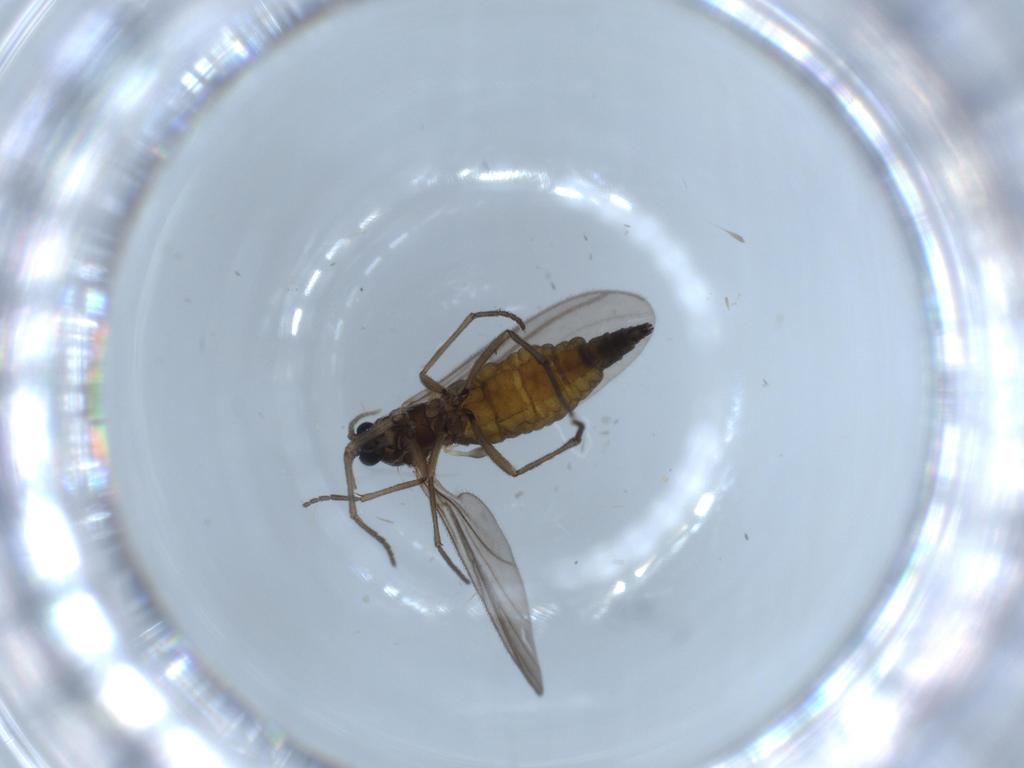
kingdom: Animalia
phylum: Arthropoda
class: Insecta
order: Diptera
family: Sciaridae
